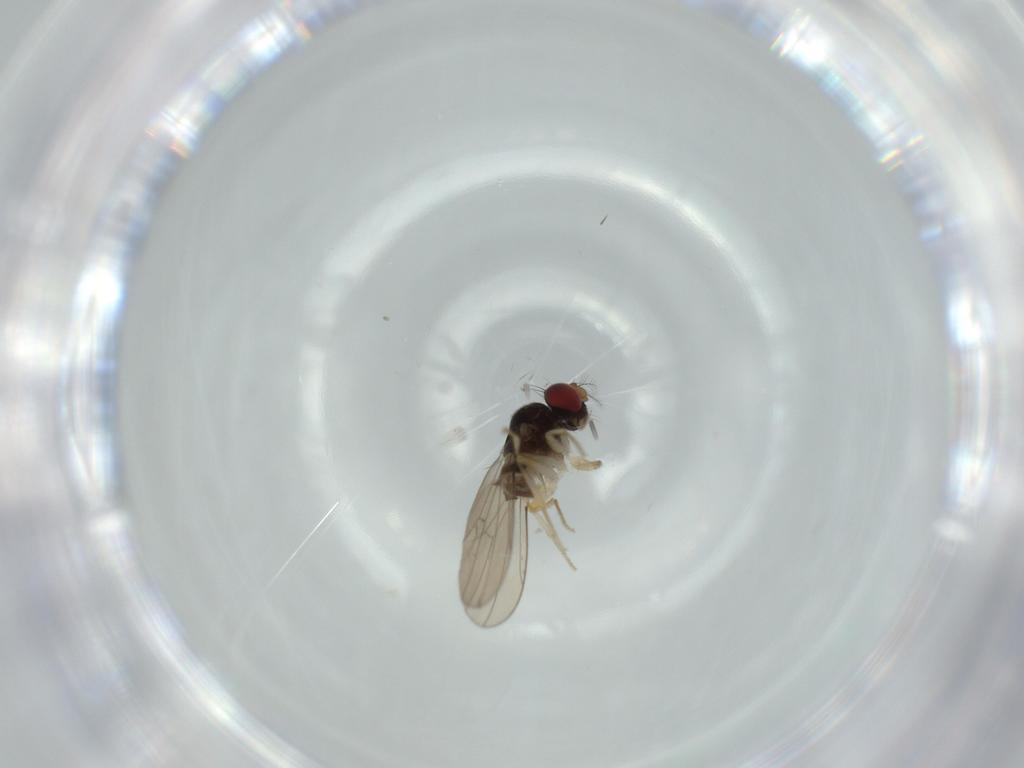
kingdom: Animalia
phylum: Arthropoda
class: Insecta
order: Diptera
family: Drosophilidae
